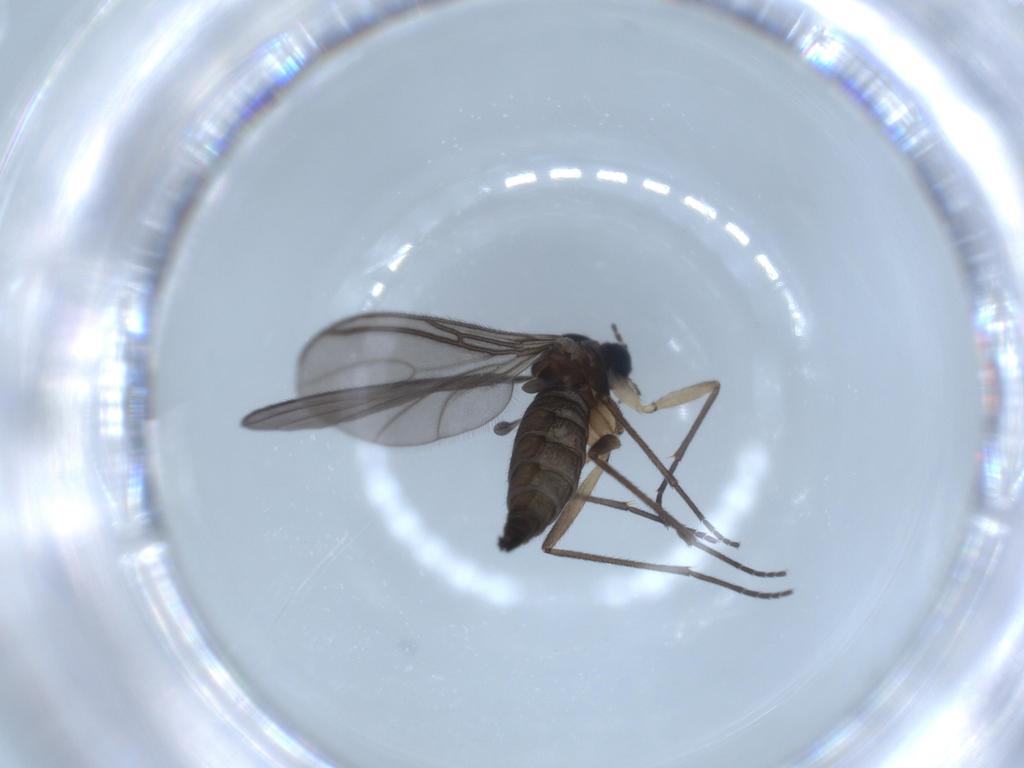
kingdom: Animalia
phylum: Arthropoda
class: Insecta
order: Diptera
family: Sciaridae
